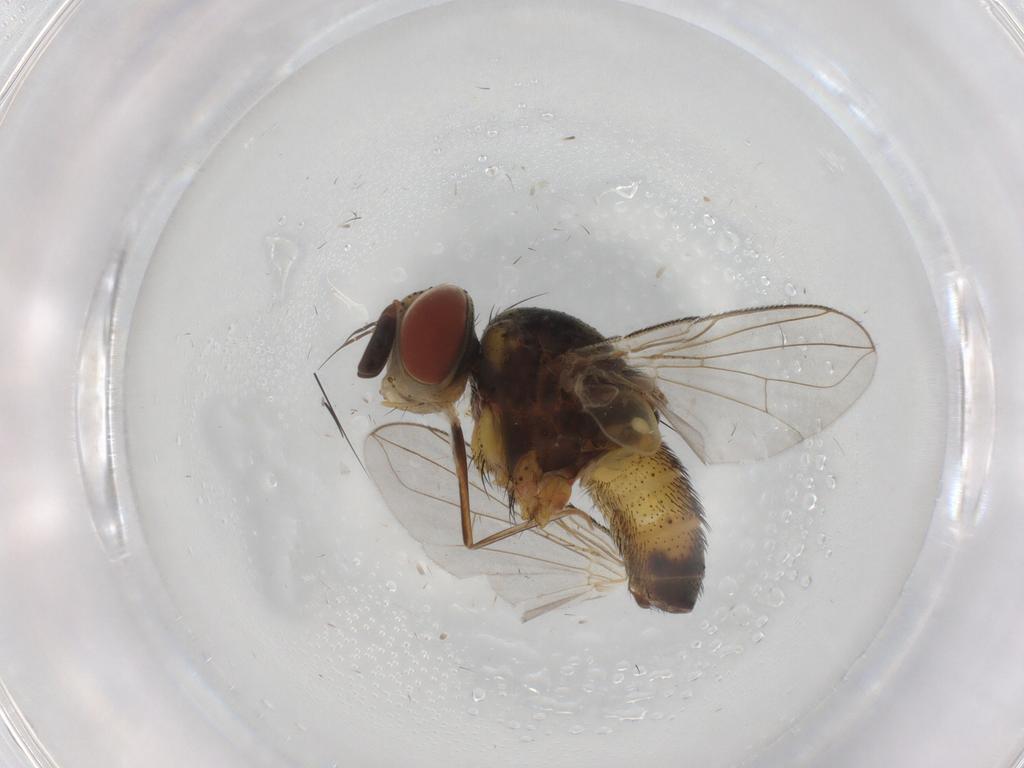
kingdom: Animalia
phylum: Arthropoda
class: Insecta
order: Diptera
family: Tachinidae
